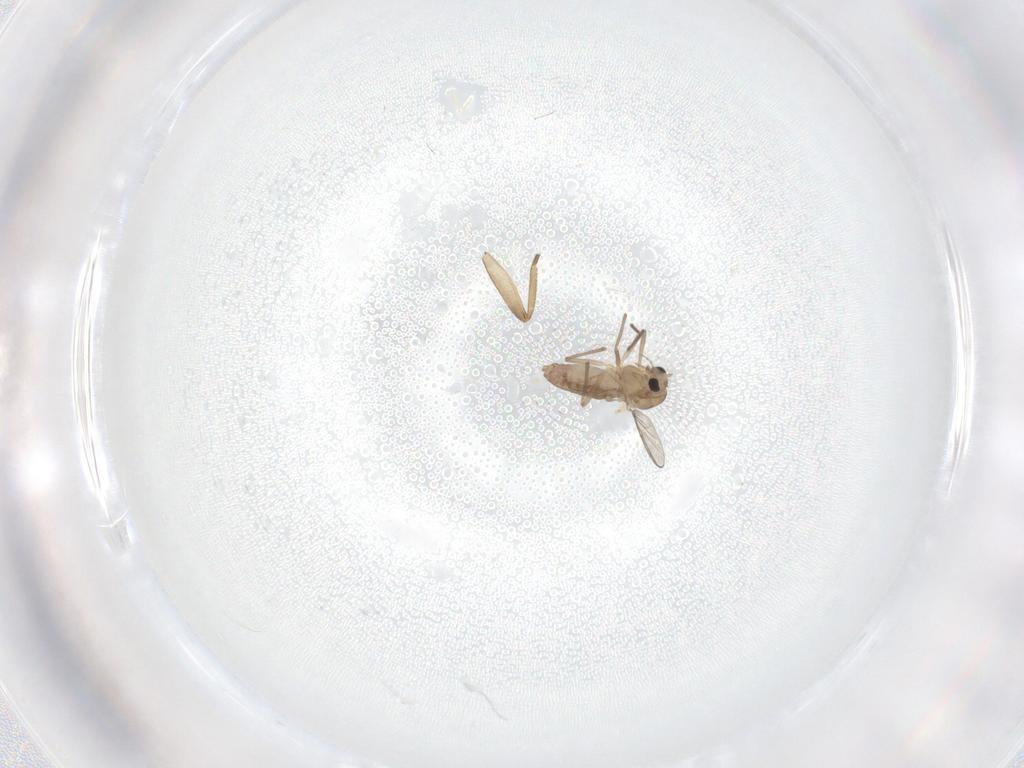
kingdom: Animalia
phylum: Arthropoda
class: Insecta
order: Diptera
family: Chironomidae
